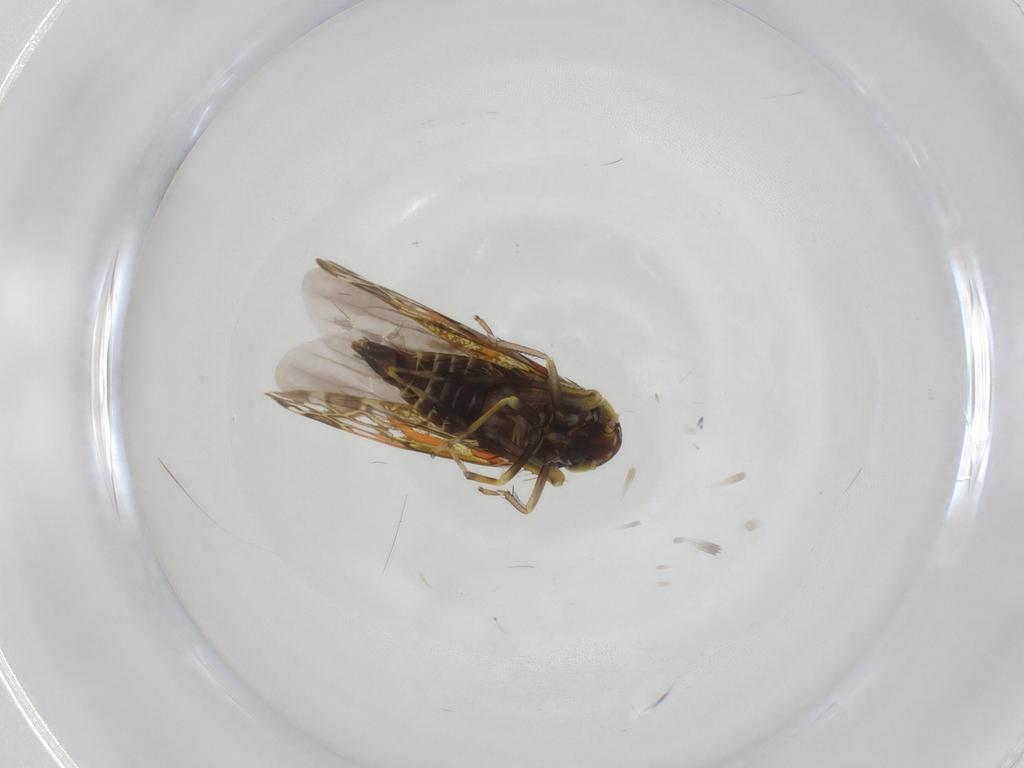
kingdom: Animalia
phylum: Arthropoda
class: Insecta
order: Hemiptera
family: Cicadellidae
